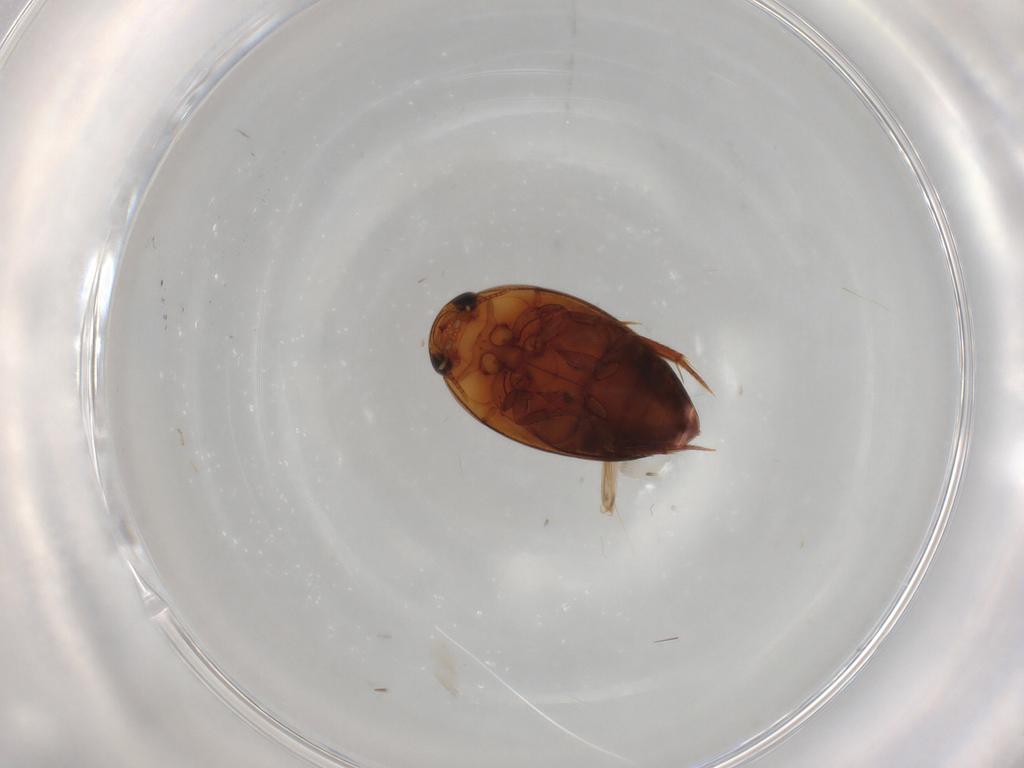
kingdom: Animalia
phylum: Arthropoda
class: Insecta
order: Coleoptera
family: Noteridae
